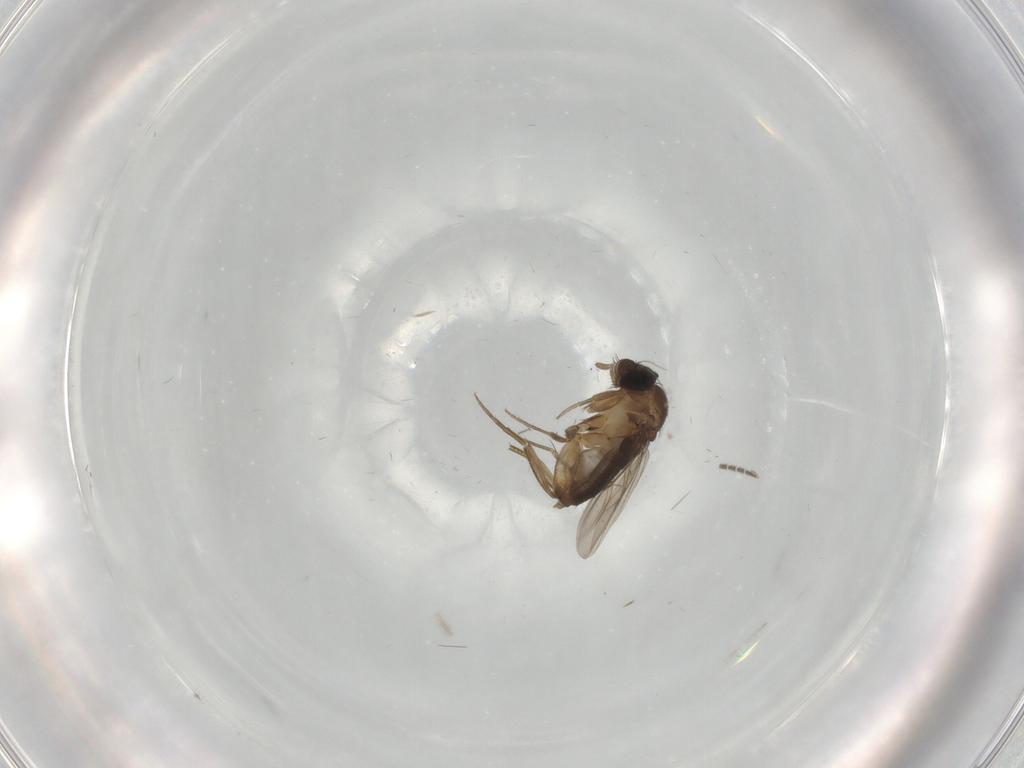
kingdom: Animalia
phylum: Arthropoda
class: Insecta
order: Diptera
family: Phoridae
